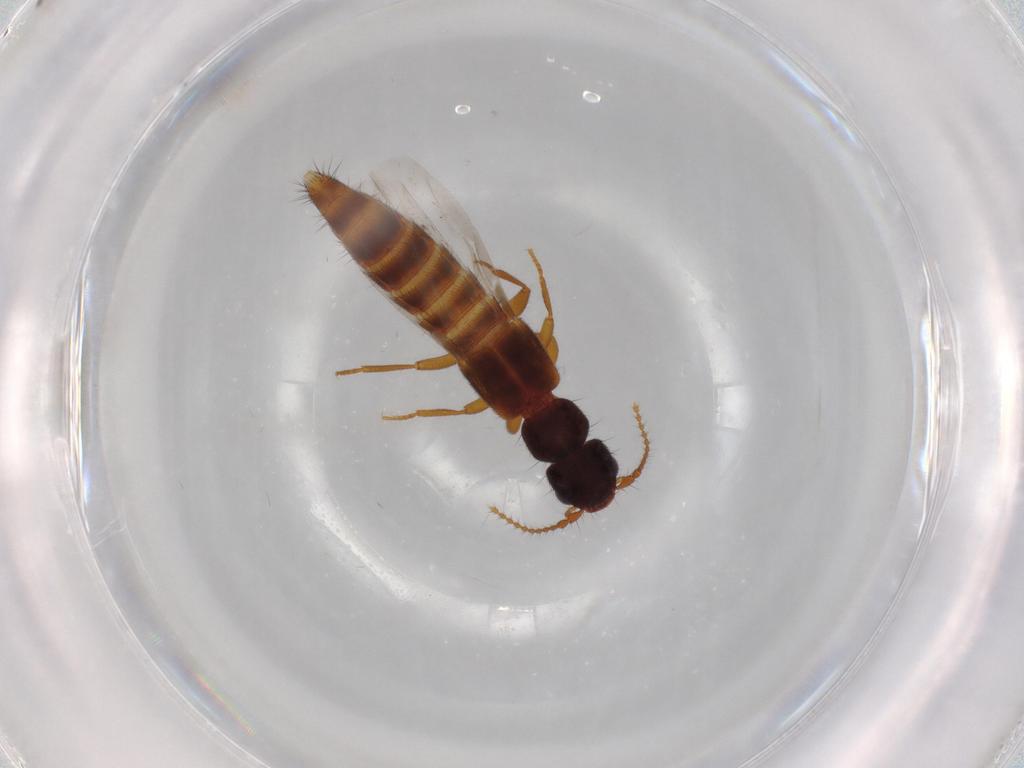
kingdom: Animalia
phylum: Arthropoda
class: Insecta
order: Coleoptera
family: Staphylinidae
